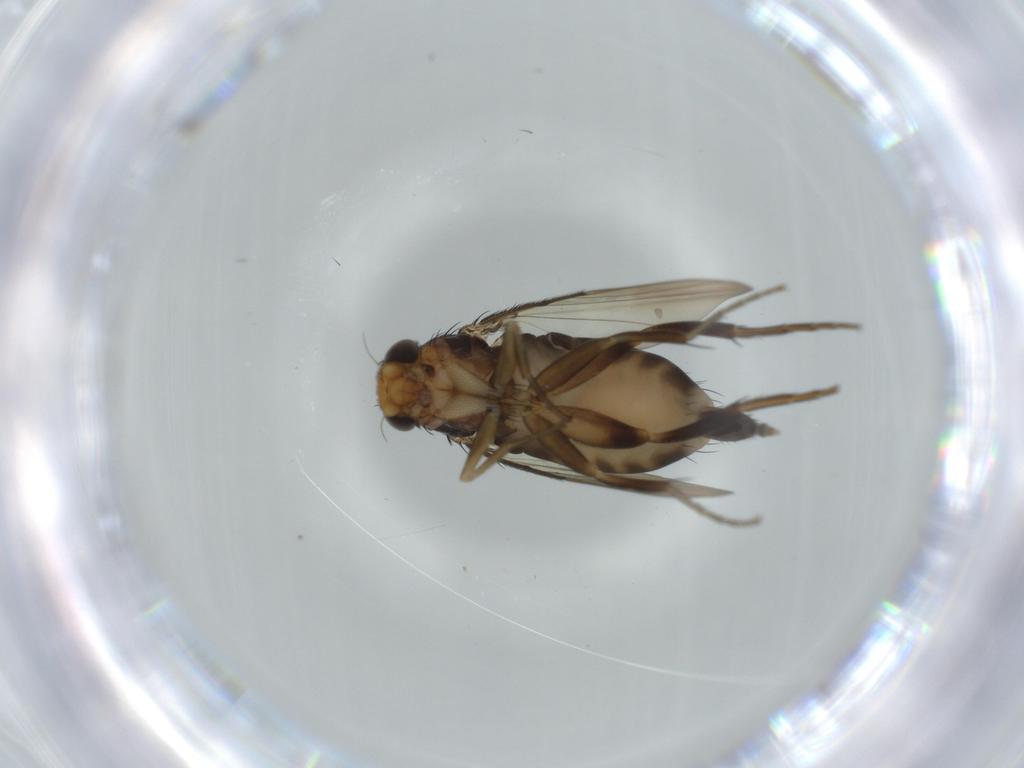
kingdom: Animalia
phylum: Arthropoda
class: Insecta
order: Diptera
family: Phoridae
